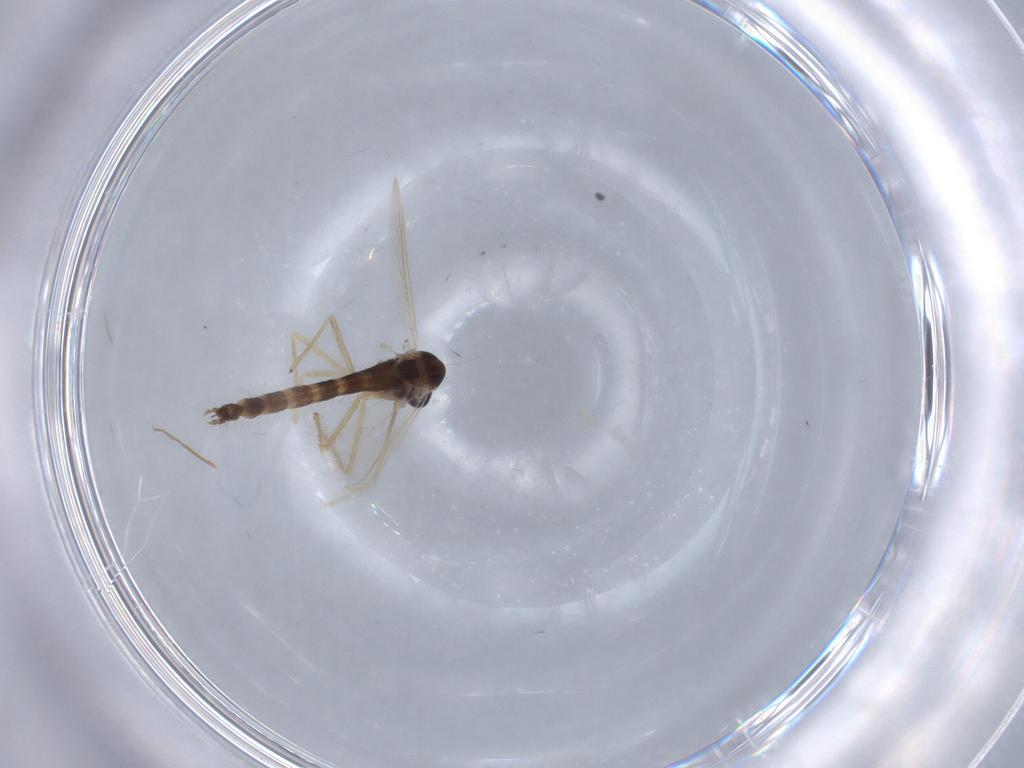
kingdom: Animalia
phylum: Arthropoda
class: Insecta
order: Diptera
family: Chironomidae
